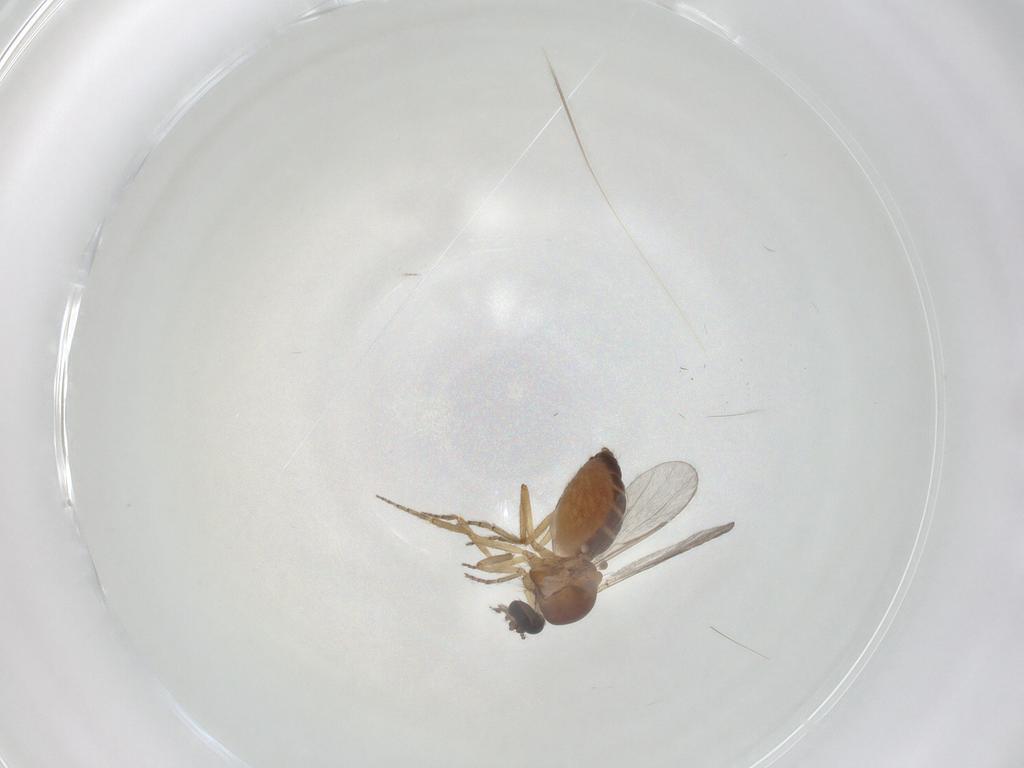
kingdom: Animalia
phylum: Arthropoda
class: Insecta
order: Diptera
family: Ceratopogonidae
